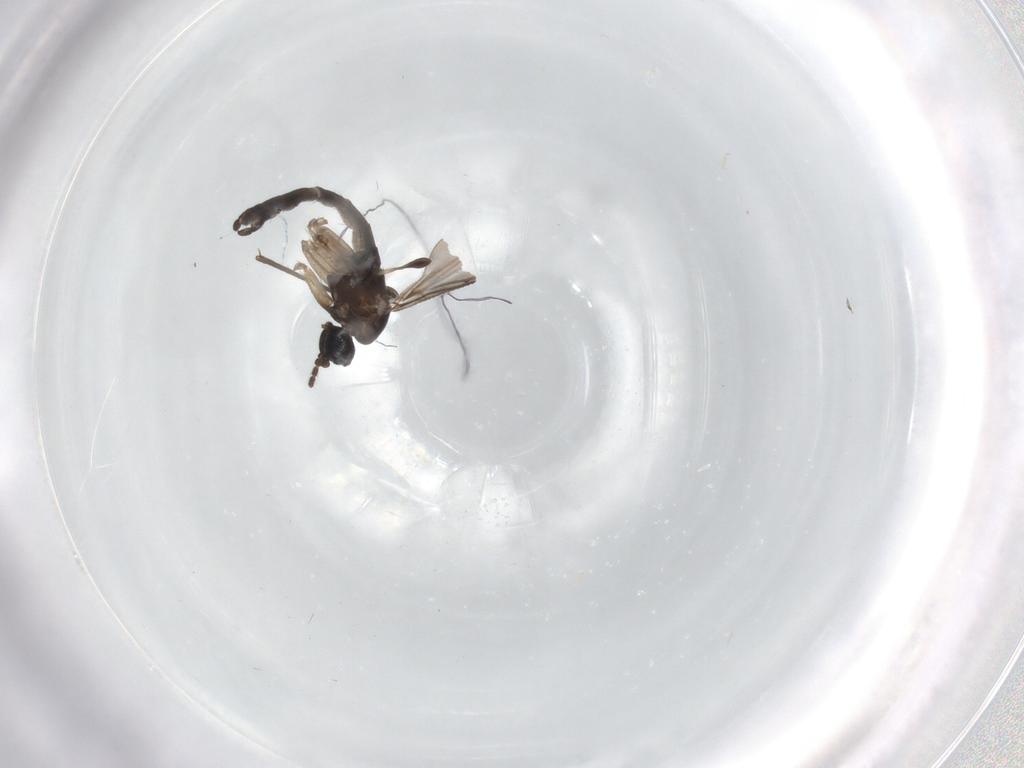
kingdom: Animalia
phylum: Arthropoda
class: Insecta
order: Diptera
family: Sciaridae
